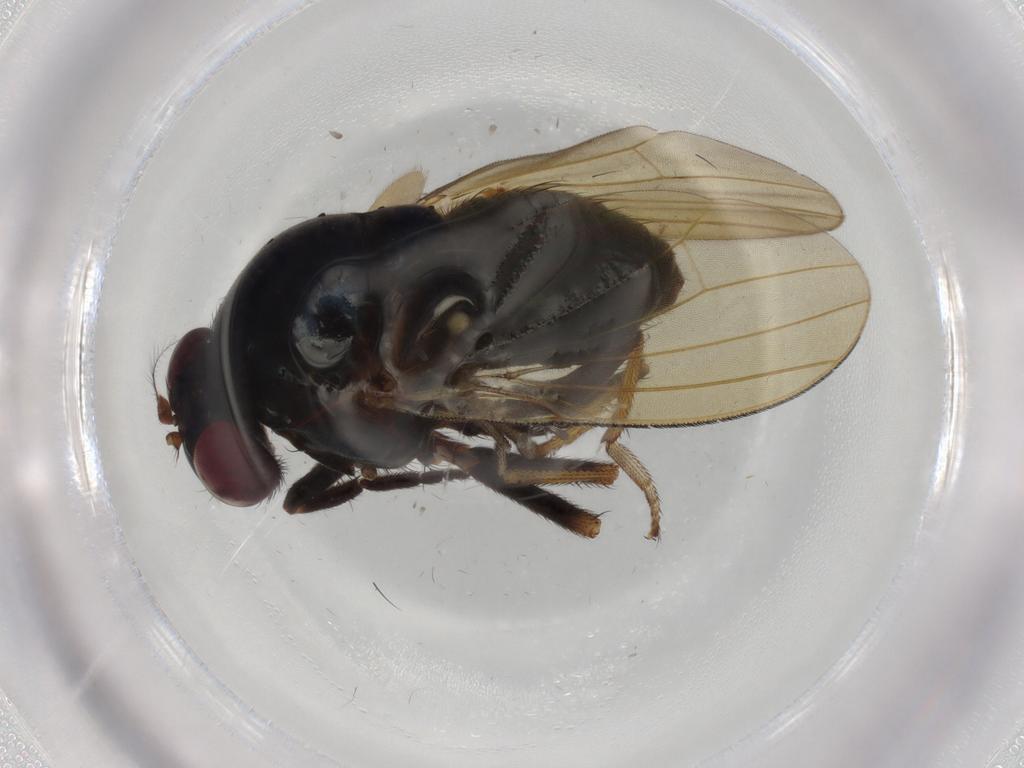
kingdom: Animalia
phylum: Arthropoda
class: Insecta
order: Diptera
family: Lauxaniidae
